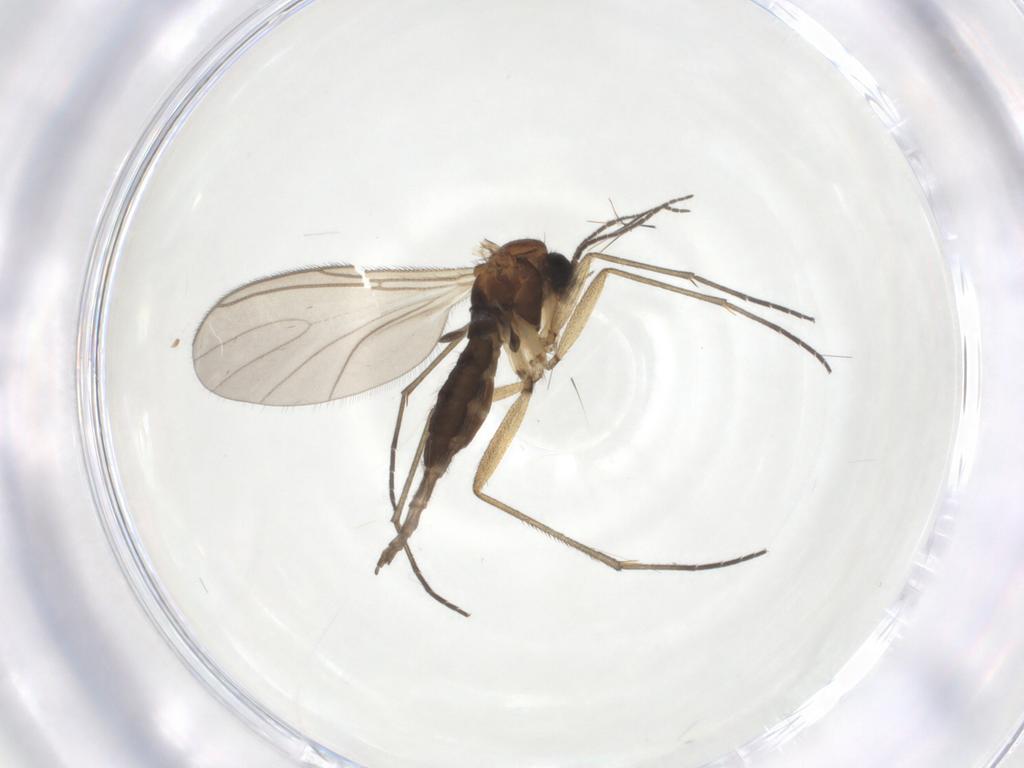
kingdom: Animalia
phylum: Arthropoda
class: Insecta
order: Diptera
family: Sciaridae
